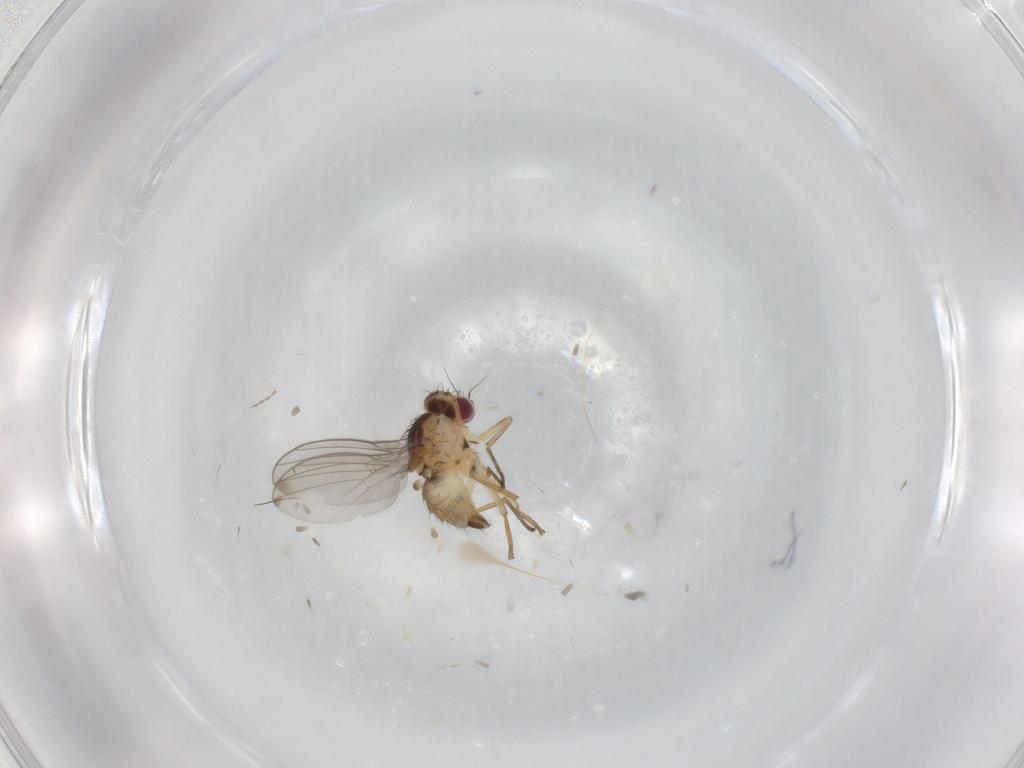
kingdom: Animalia
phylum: Arthropoda
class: Insecta
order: Diptera
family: Agromyzidae
